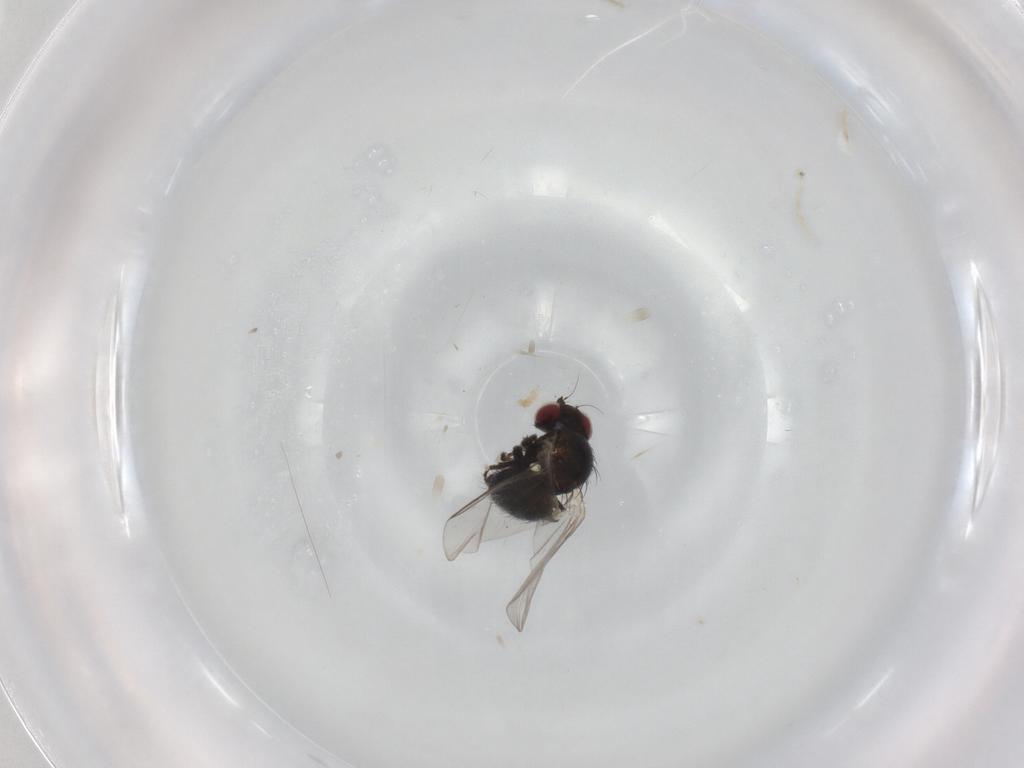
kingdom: Animalia
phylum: Arthropoda
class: Insecta
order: Diptera
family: Agromyzidae
